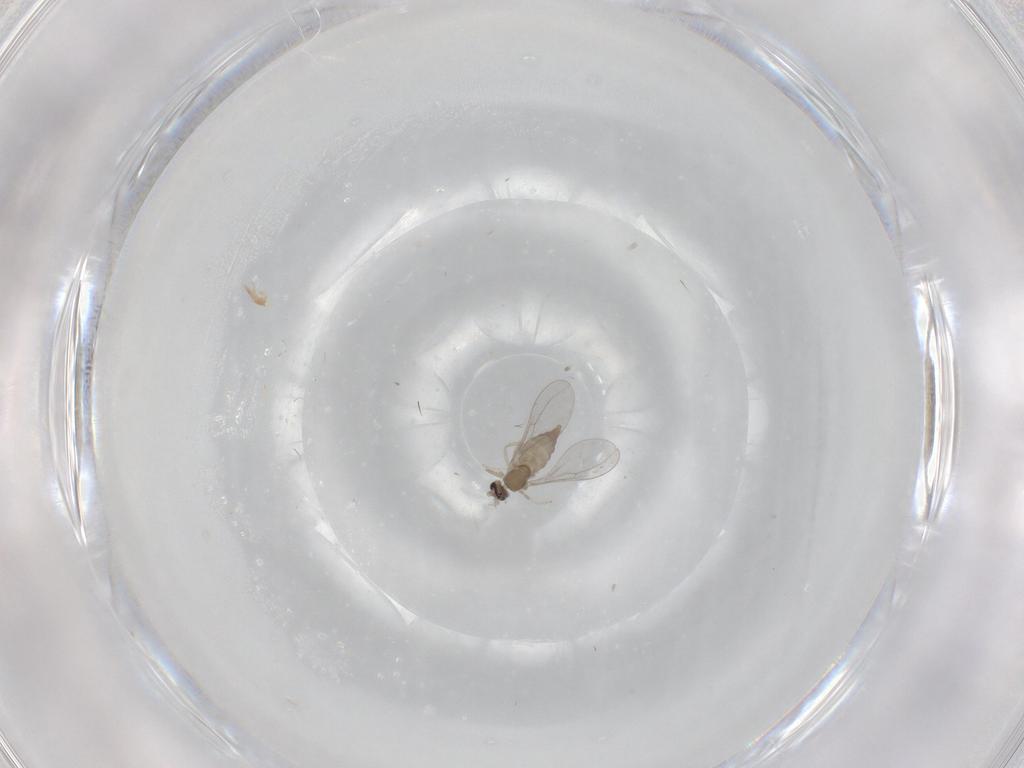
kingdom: Animalia
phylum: Arthropoda
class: Insecta
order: Diptera
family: Cecidomyiidae
